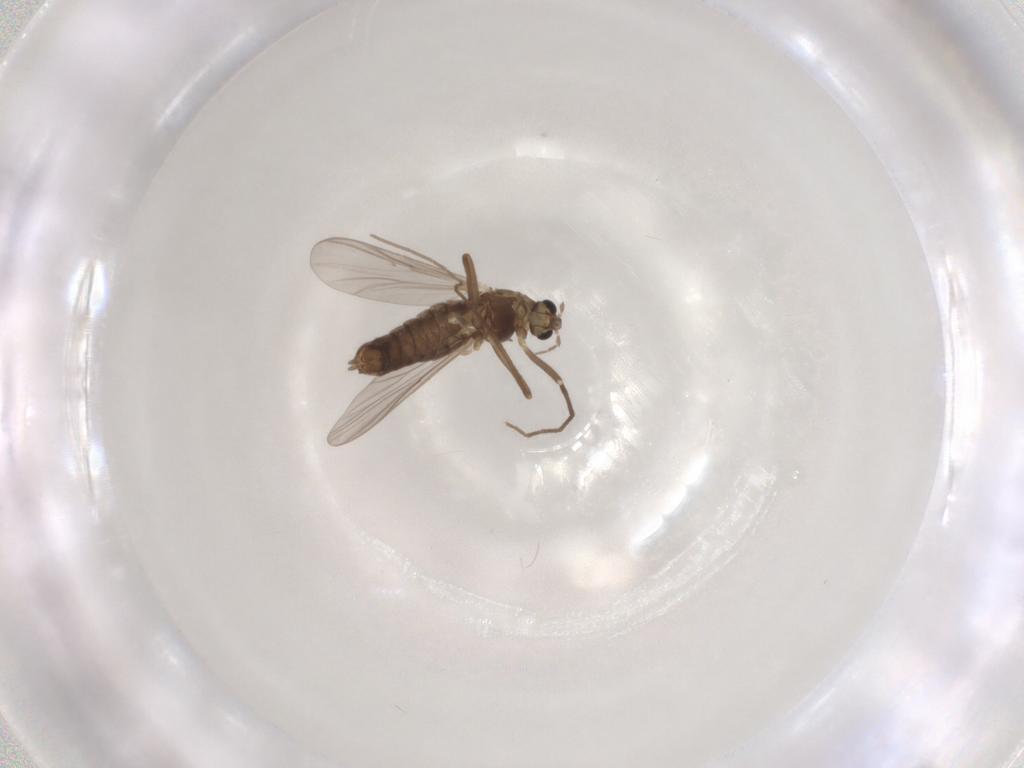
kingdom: Animalia
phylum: Arthropoda
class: Insecta
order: Diptera
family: Chironomidae
